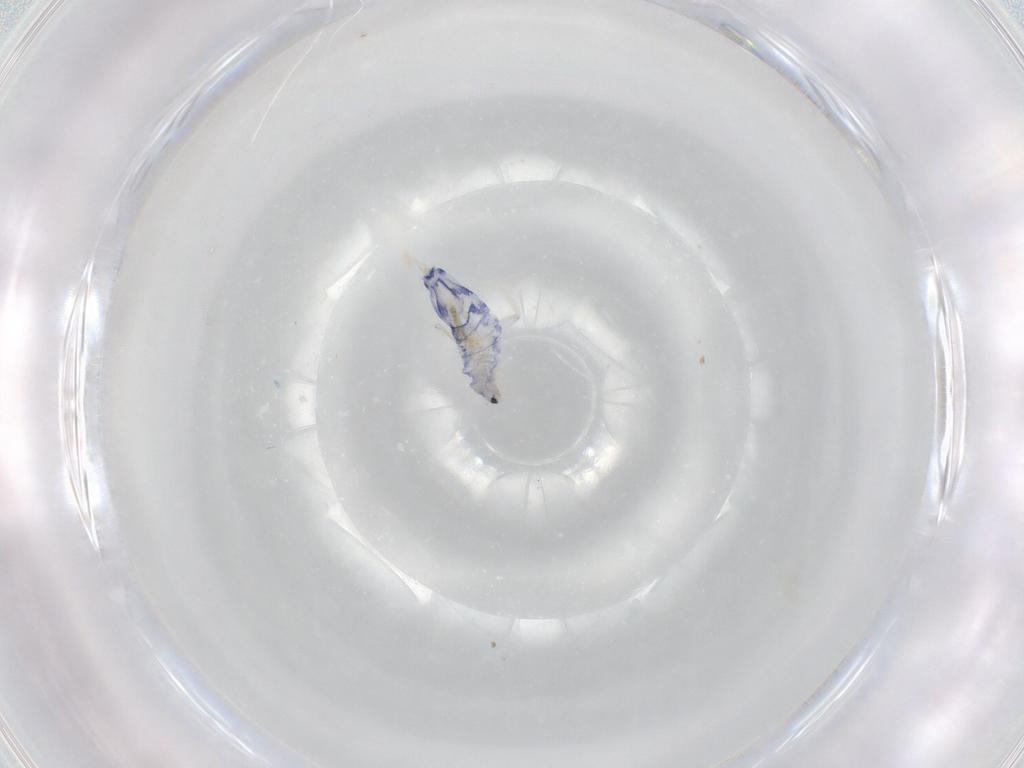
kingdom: Animalia
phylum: Arthropoda
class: Collembola
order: Entomobryomorpha
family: Entomobryidae
